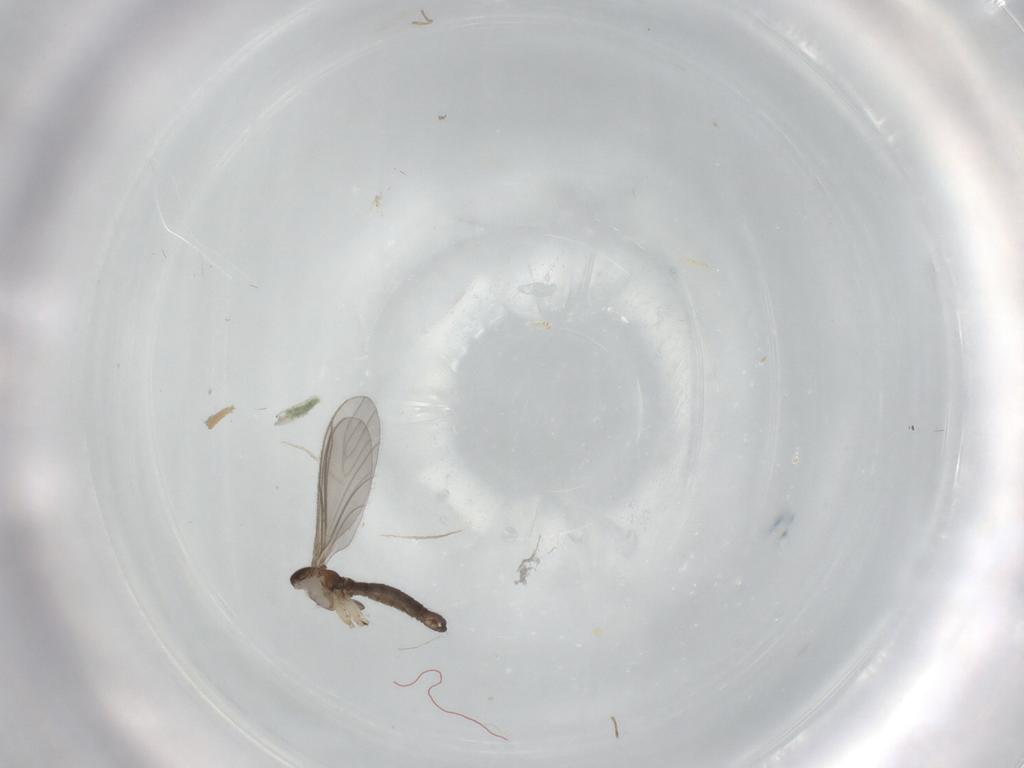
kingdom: Animalia
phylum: Arthropoda
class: Insecta
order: Diptera
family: Sciaridae
